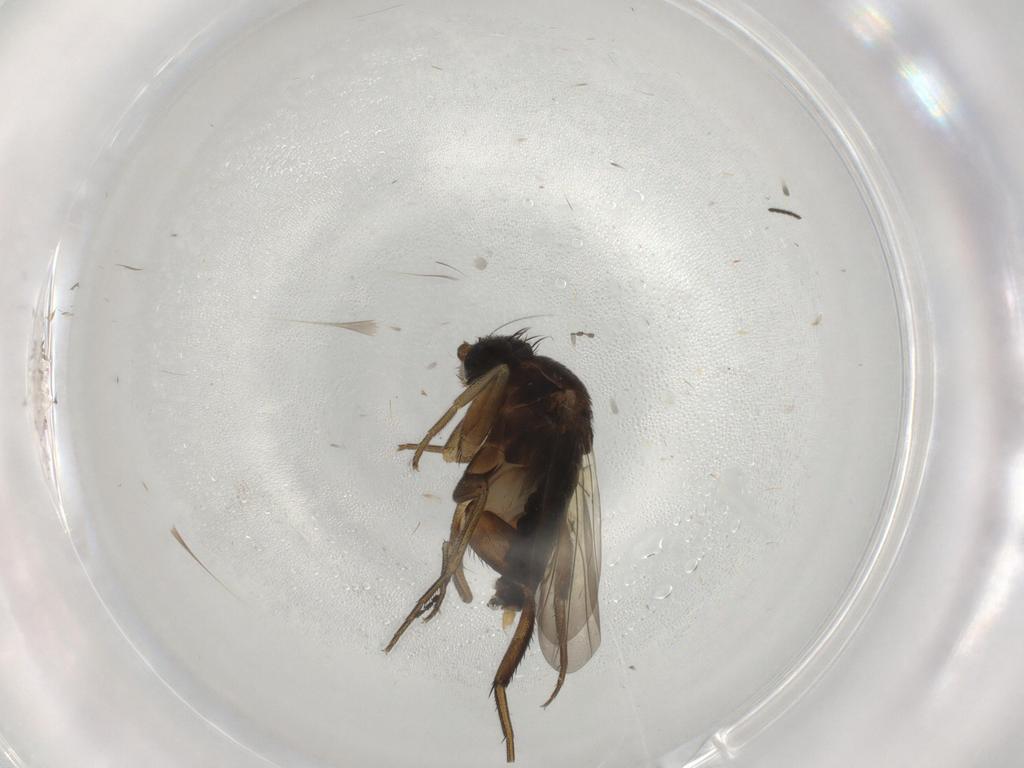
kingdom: Animalia
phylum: Arthropoda
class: Insecta
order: Diptera
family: Sciaridae
